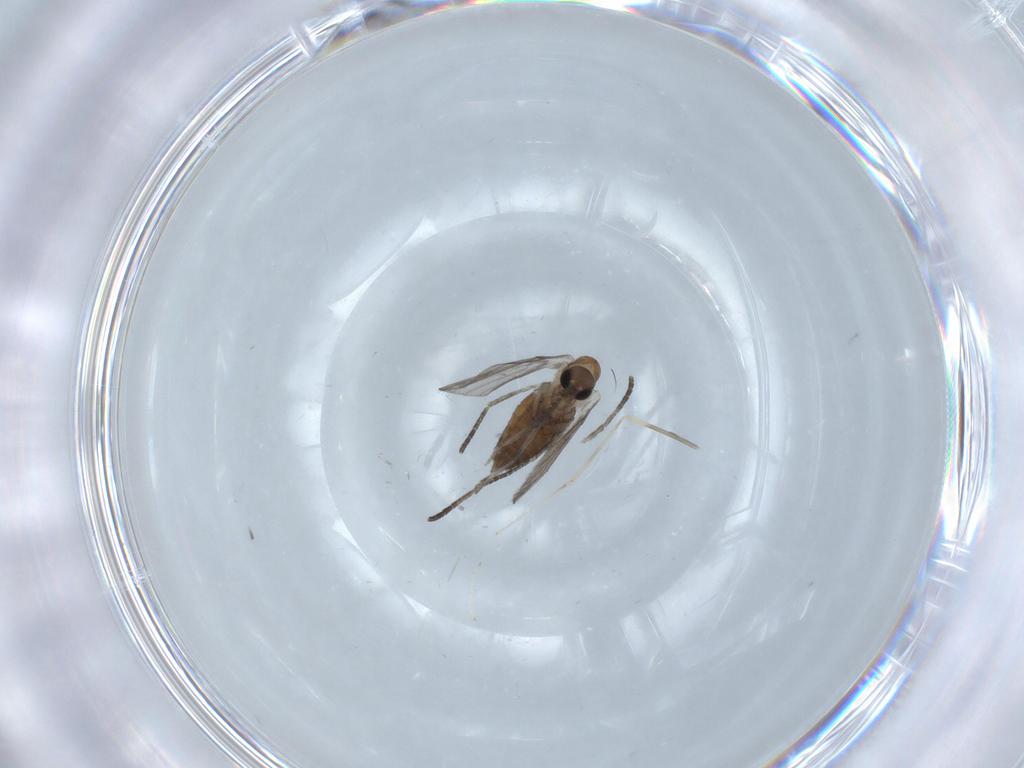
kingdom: Animalia
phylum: Arthropoda
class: Insecta
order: Diptera
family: Psychodidae
